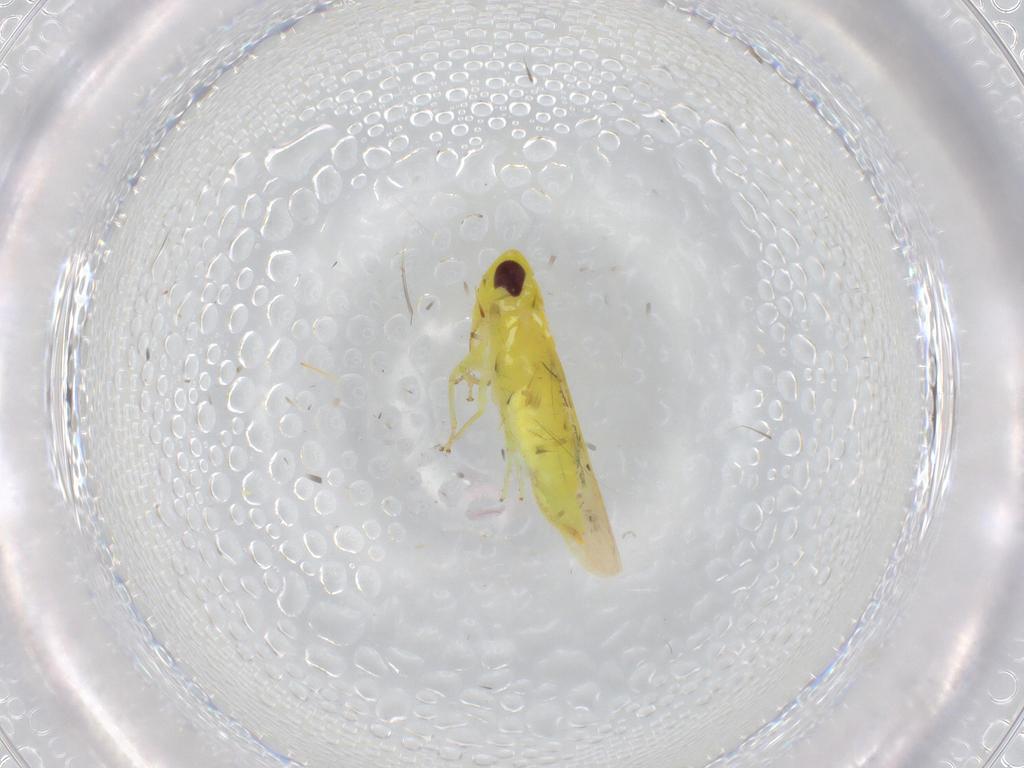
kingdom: Animalia
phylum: Arthropoda
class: Insecta
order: Hemiptera
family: Cicadellidae
